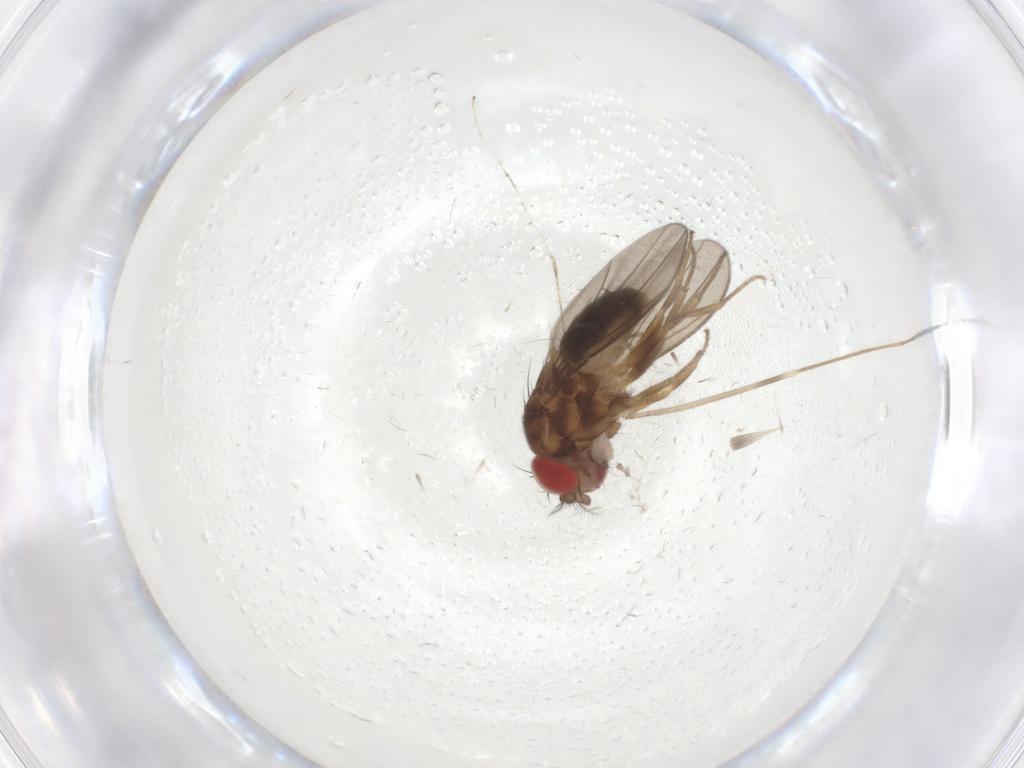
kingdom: Animalia
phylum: Arthropoda
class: Insecta
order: Diptera
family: Drosophilidae
